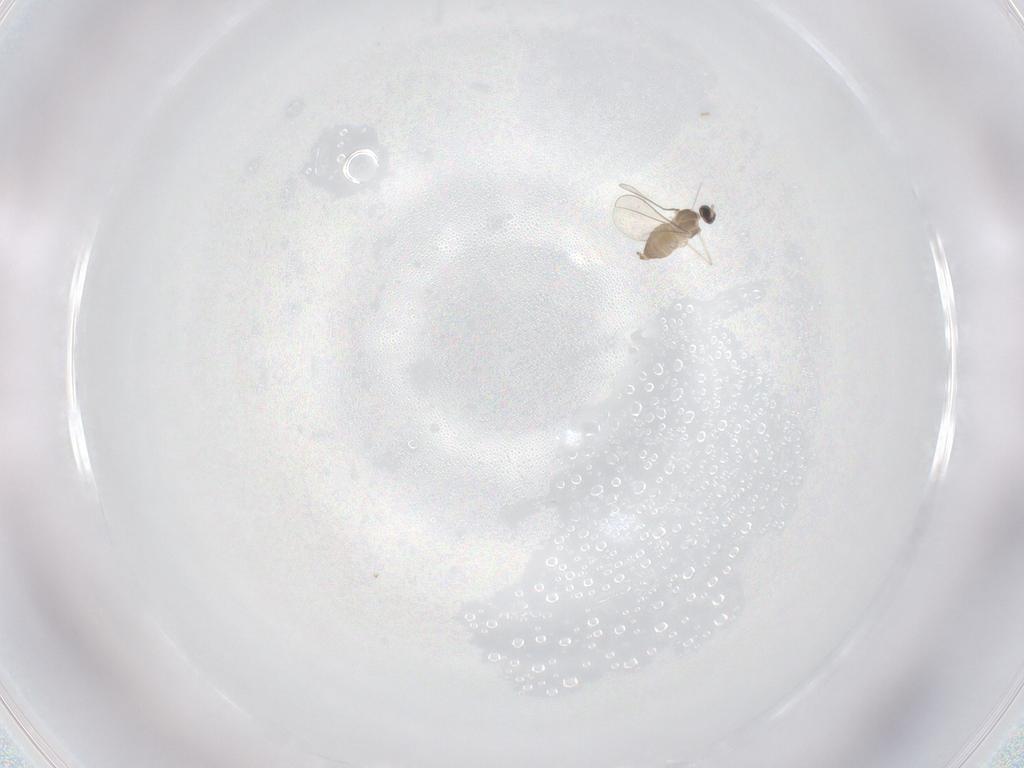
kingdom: Animalia
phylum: Arthropoda
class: Insecta
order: Diptera
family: Cecidomyiidae
